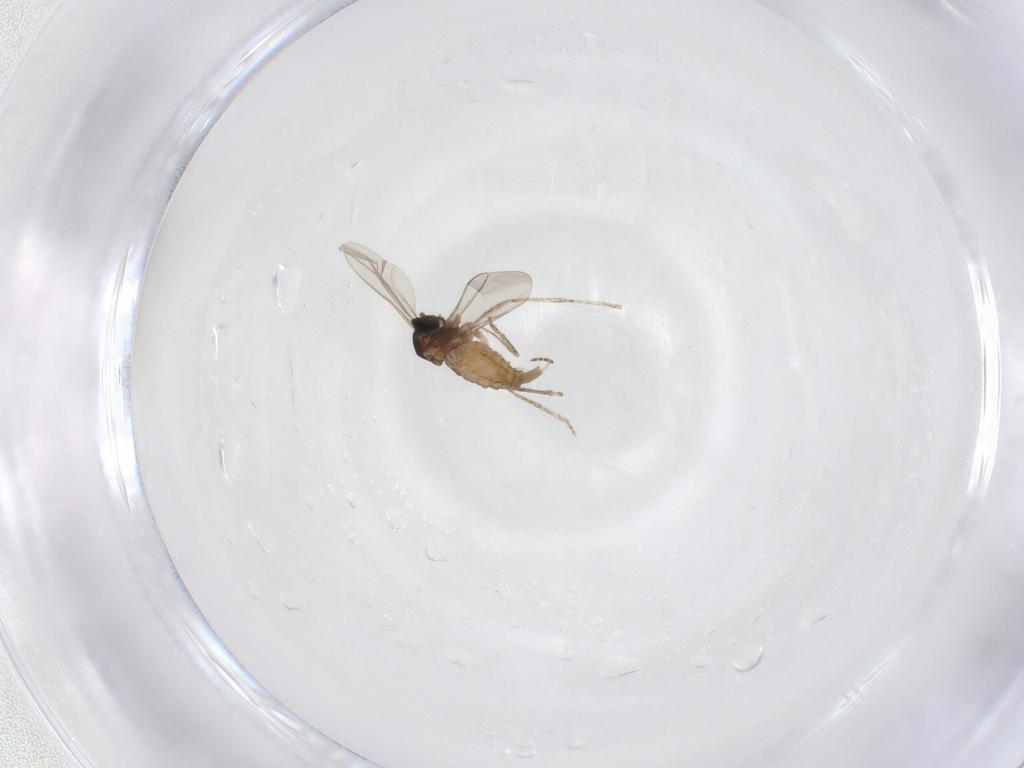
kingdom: Animalia
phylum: Arthropoda
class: Insecta
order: Diptera
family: Cecidomyiidae
